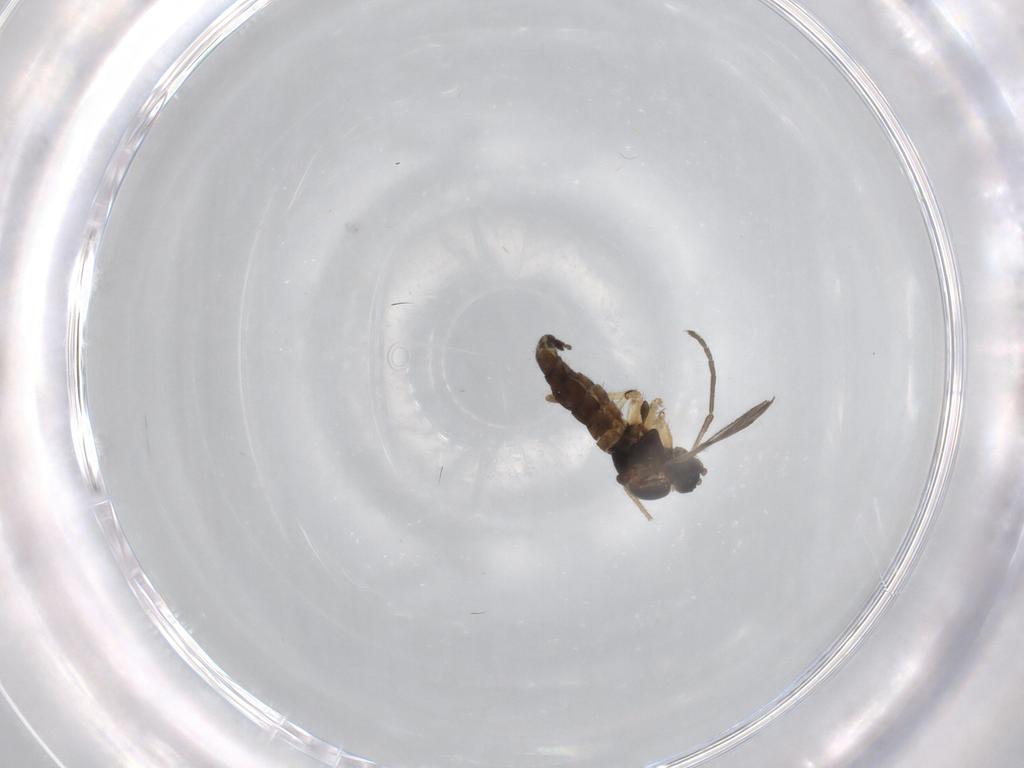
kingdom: Animalia
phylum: Arthropoda
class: Insecta
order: Diptera
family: Sciaridae
